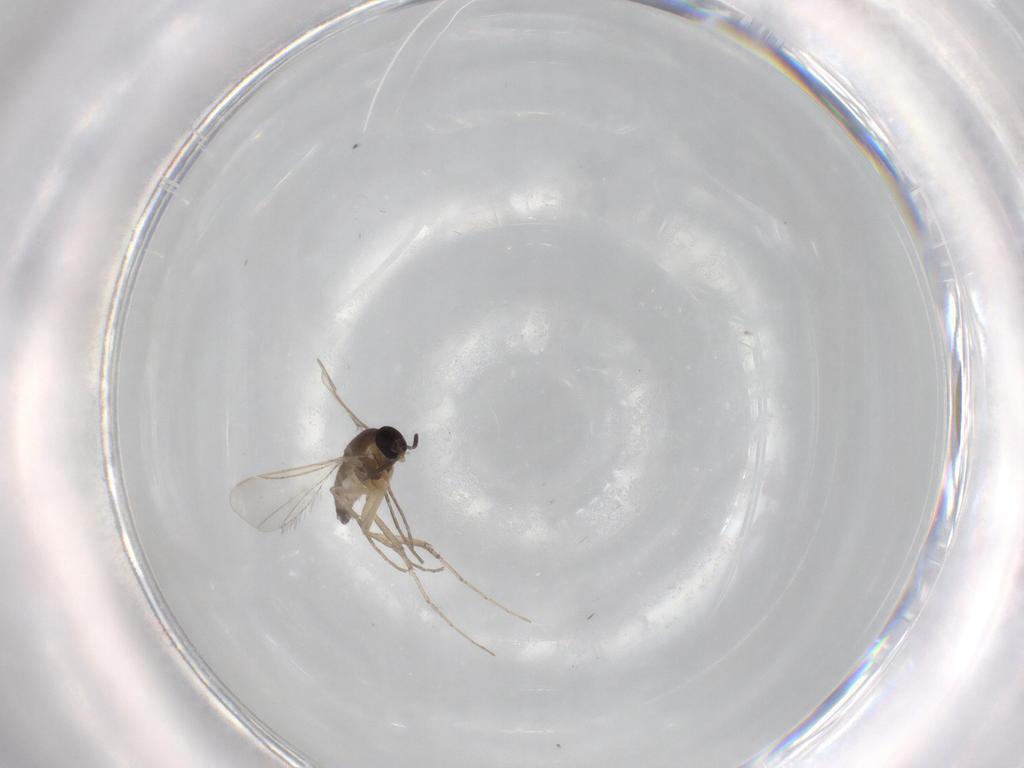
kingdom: Animalia
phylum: Arthropoda
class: Insecta
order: Diptera
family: Cecidomyiidae
